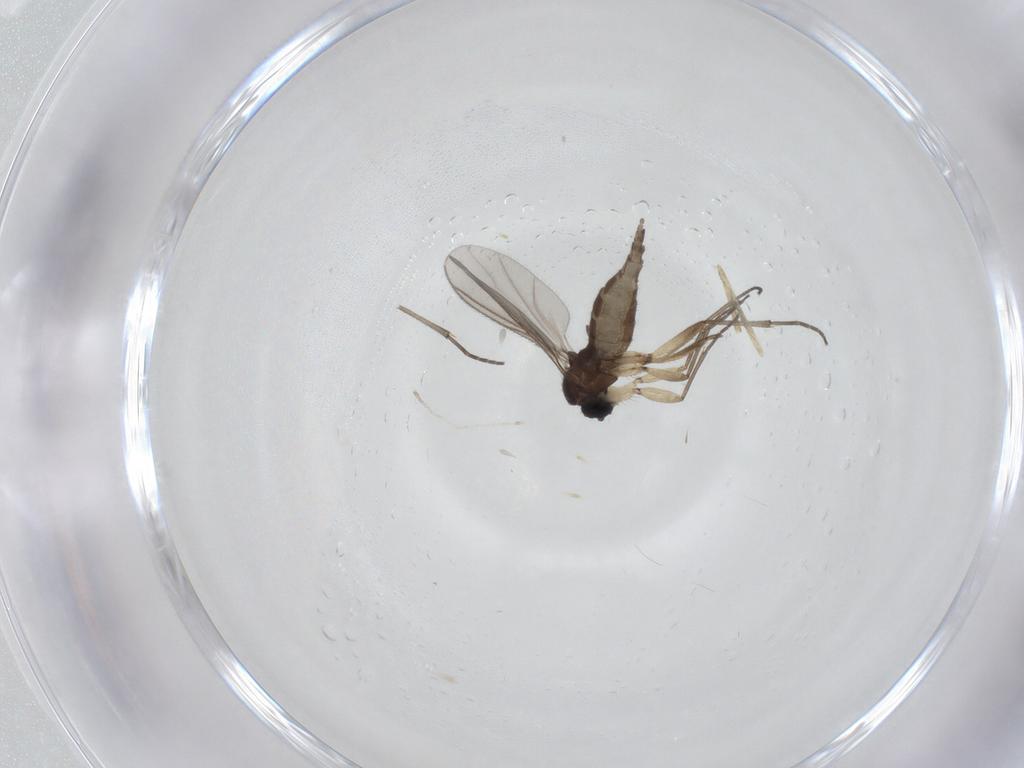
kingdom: Animalia
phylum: Arthropoda
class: Insecta
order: Diptera
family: Sciaridae
